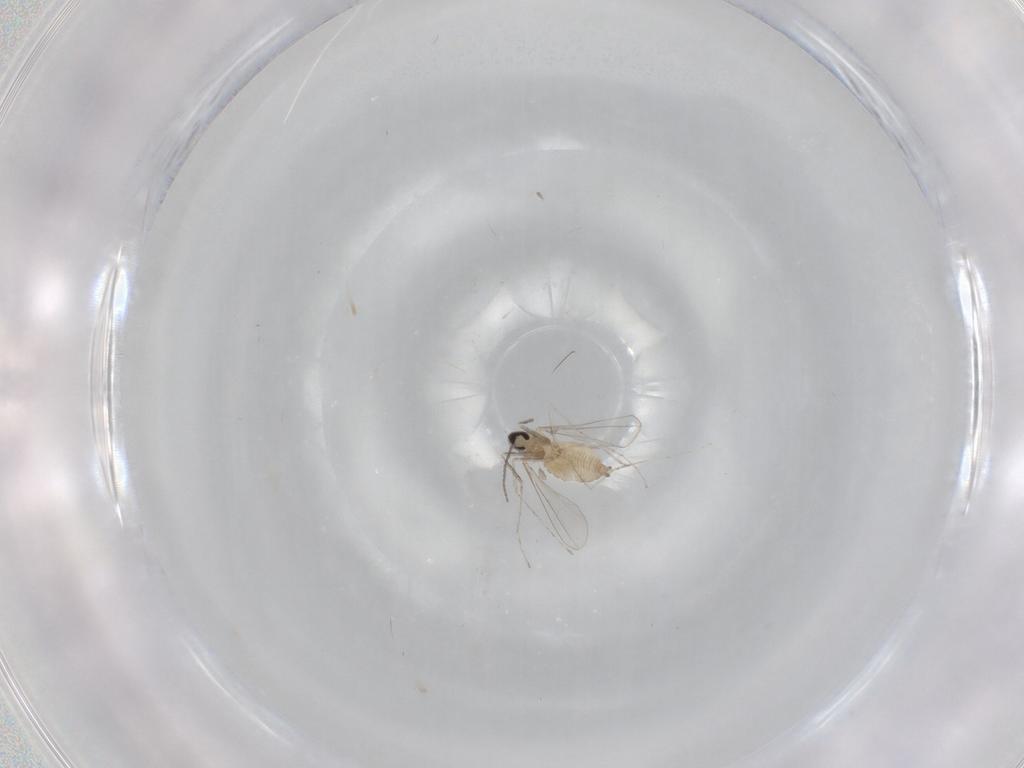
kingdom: Animalia
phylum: Arthropoda
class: Insecta
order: Diptera
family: Cecidomyiidae
